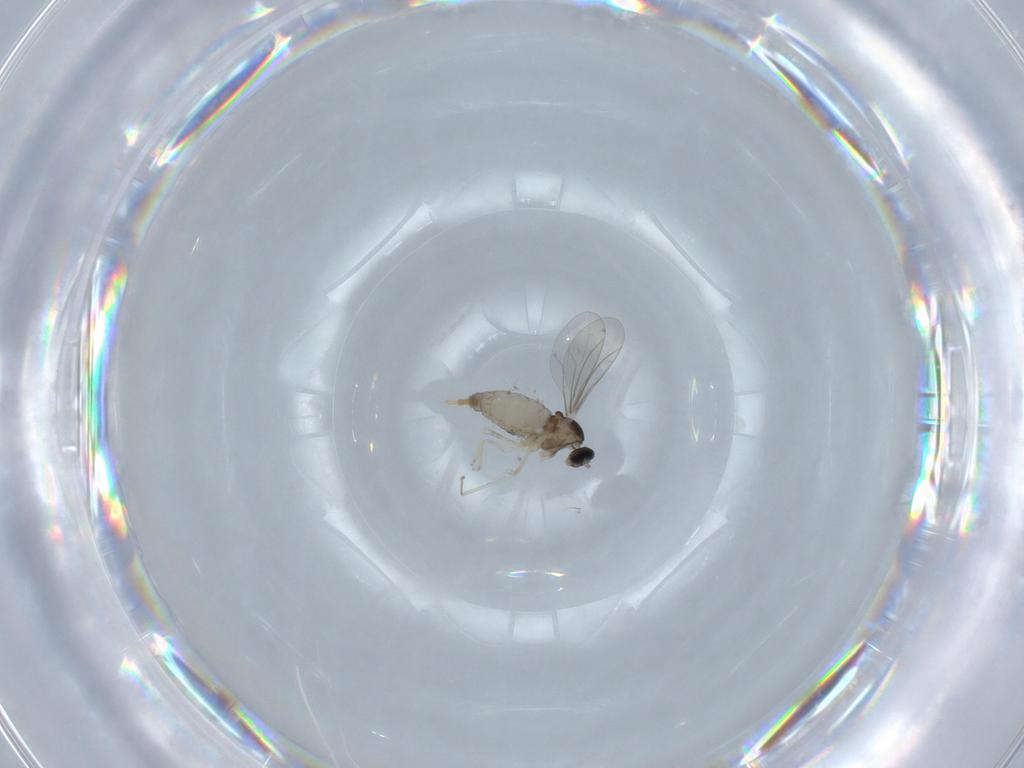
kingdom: Animalia
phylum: Arthropoda
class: Insecta
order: Diptera
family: Cecidomyiidae
